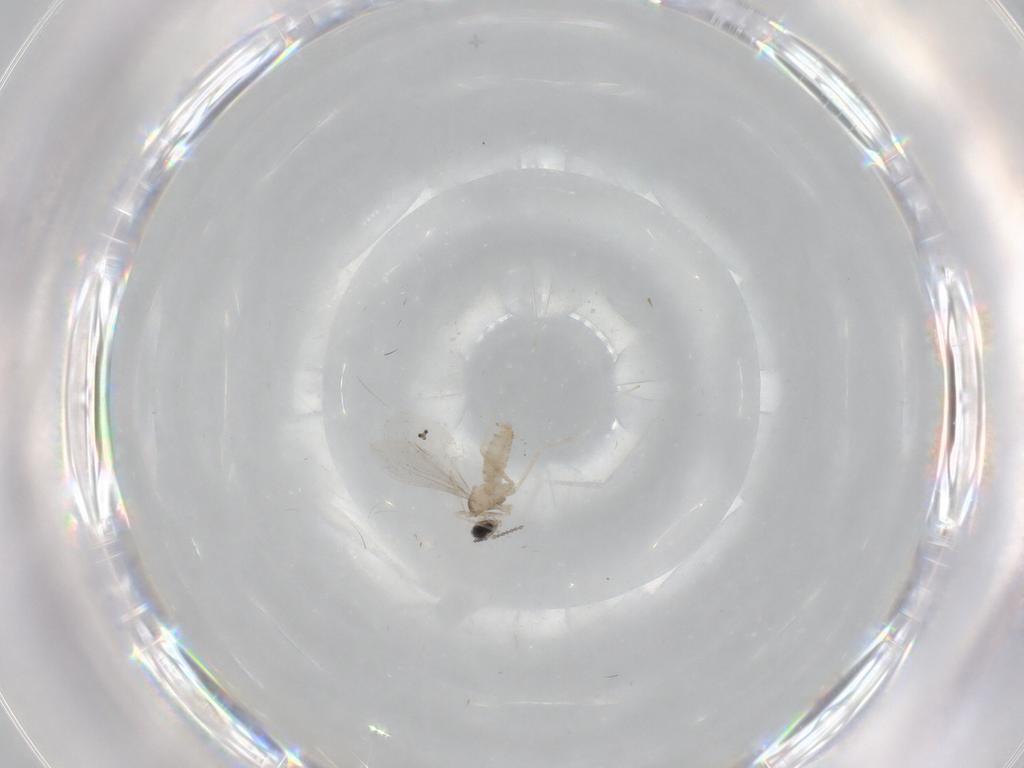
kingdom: Animalia
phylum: Arthropoda
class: Insecta
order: Diptera
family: Cecidomyiidae
